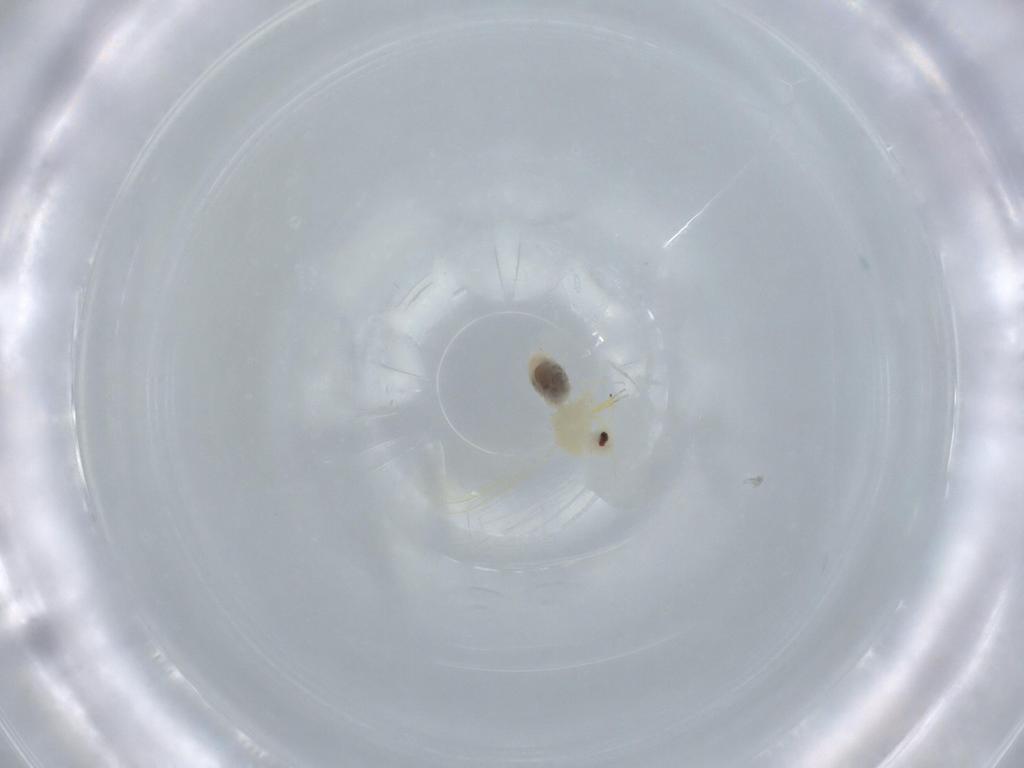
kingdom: Animalia
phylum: Arthropoda
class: Insecta
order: Hemiptera
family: Aleyrodidae
